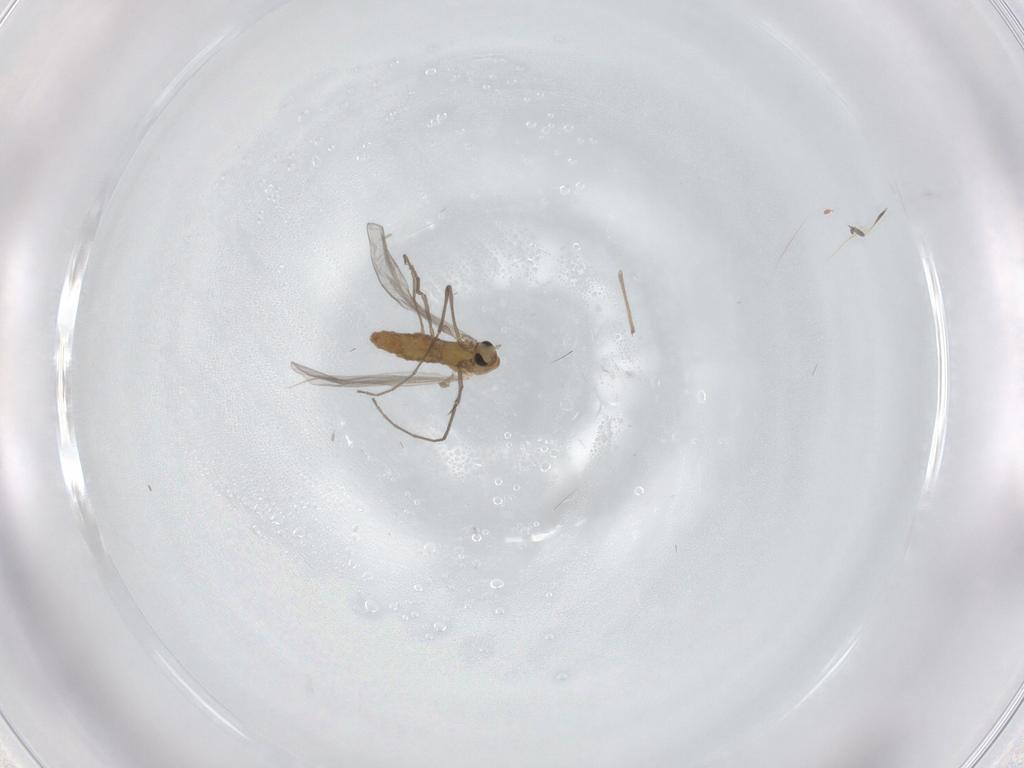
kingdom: Animalia
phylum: Arthropoda
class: Insecta
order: Diptera
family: Chironomidae
